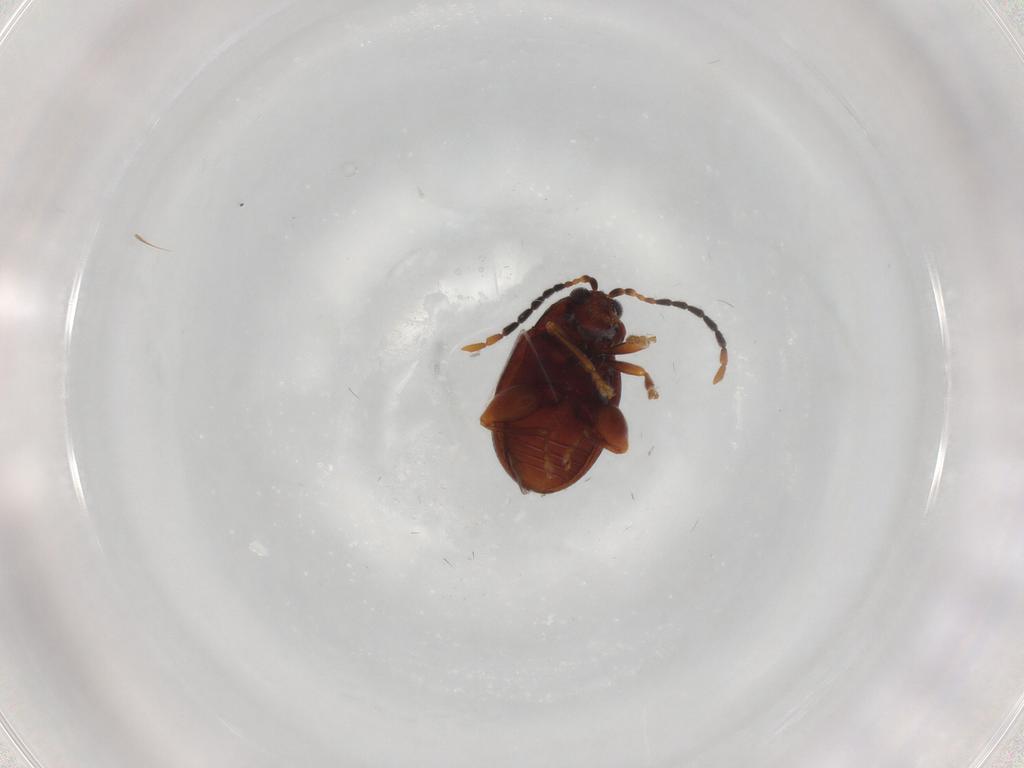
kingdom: Animalia
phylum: Arthropoda
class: Insecta
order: Coleoptera
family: Chrysomelidae
